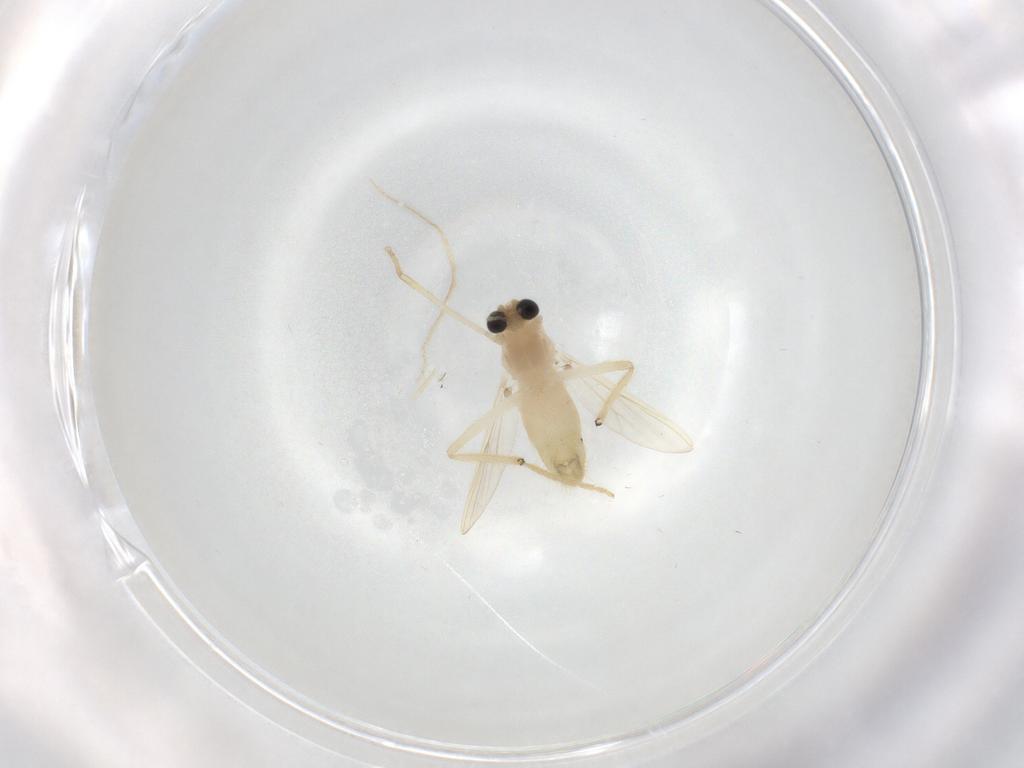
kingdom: Animalia
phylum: Arthropoda
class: Insecta
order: Diptera
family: Chironomidae
